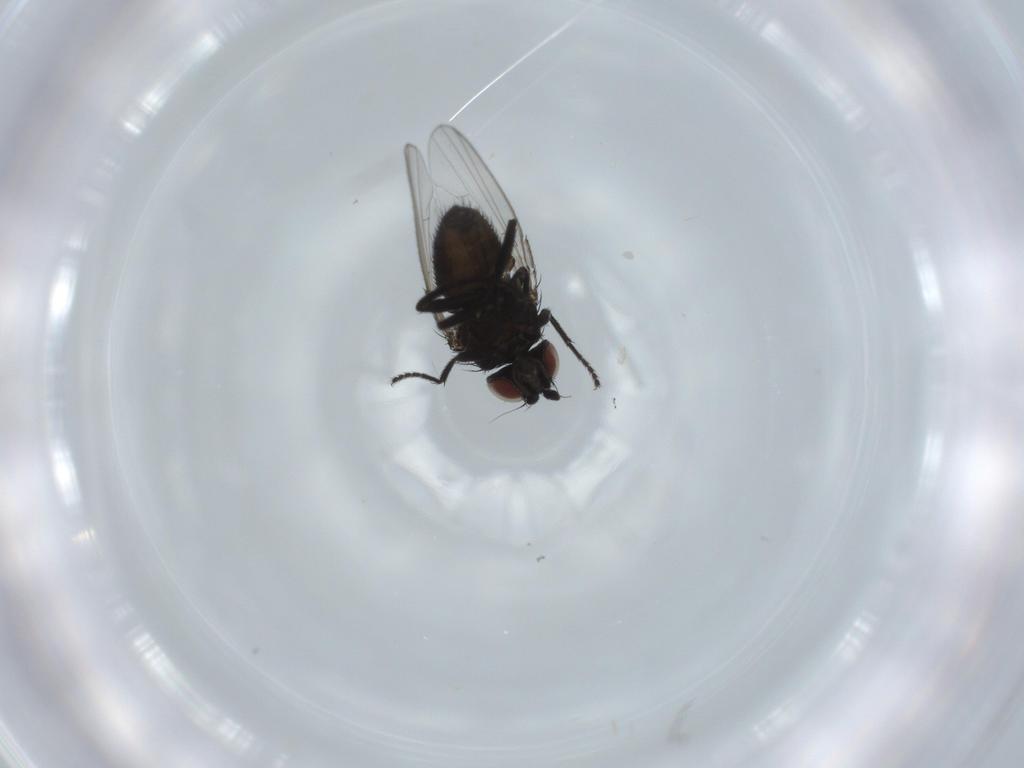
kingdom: Animalia
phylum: Arthropoda
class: Insecta
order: Diptera
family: Milichiidae
